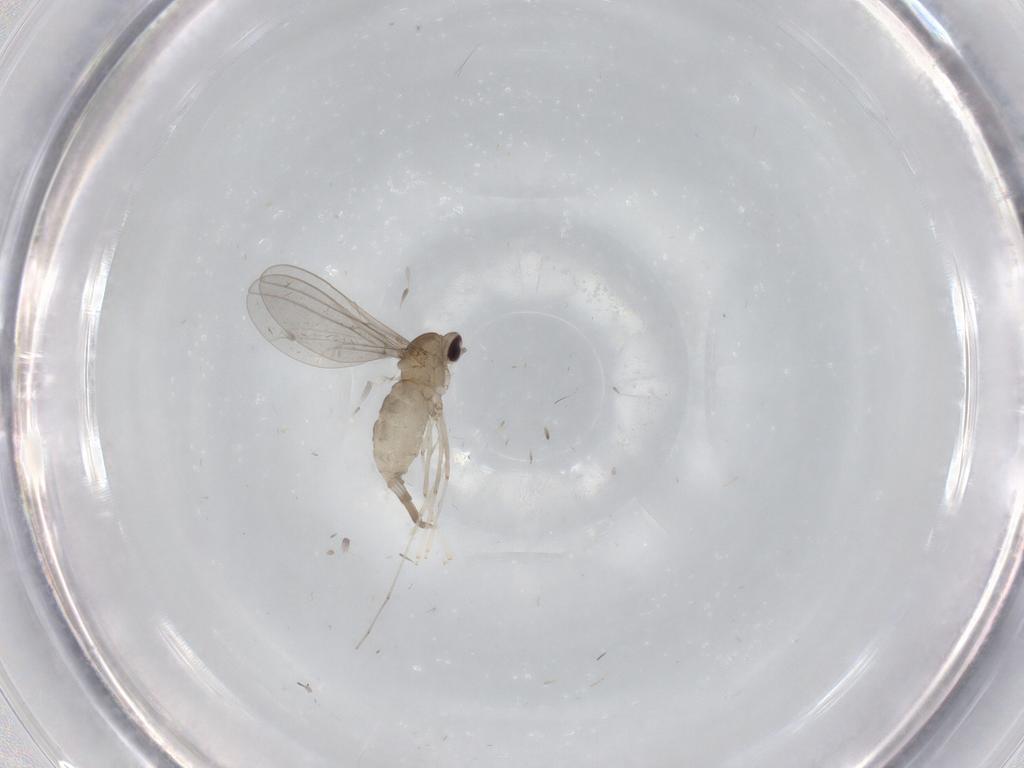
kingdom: Animalia
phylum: Arthropoda
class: Insecta
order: Diptera
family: Cecidomyiidae
